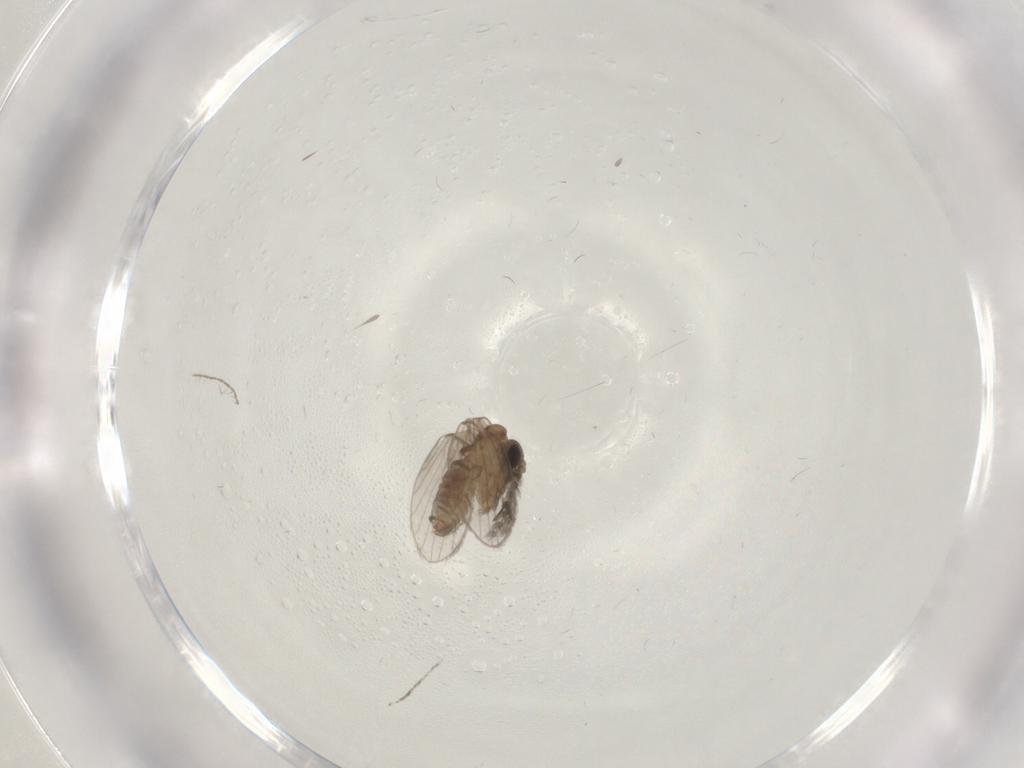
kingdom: Animalia
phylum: Arthropoda
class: Insecta
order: Diptera
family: Psychodidae
